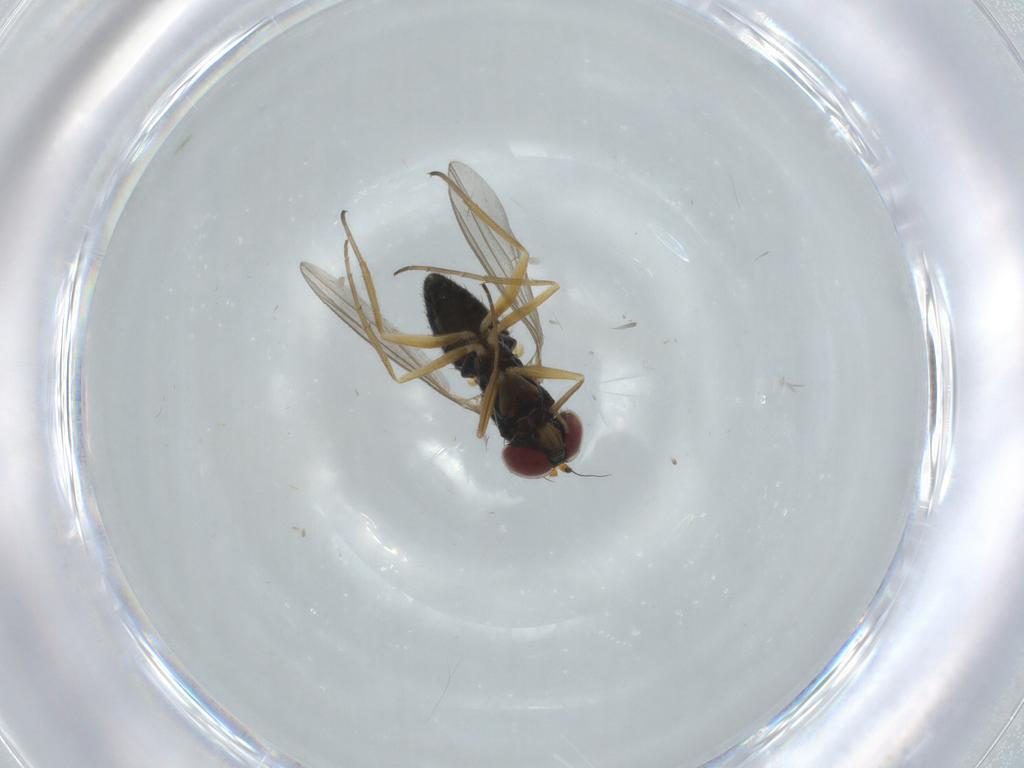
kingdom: Animalia
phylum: Arthropoda
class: Insecta
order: Diptera
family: Dolichopodidae
